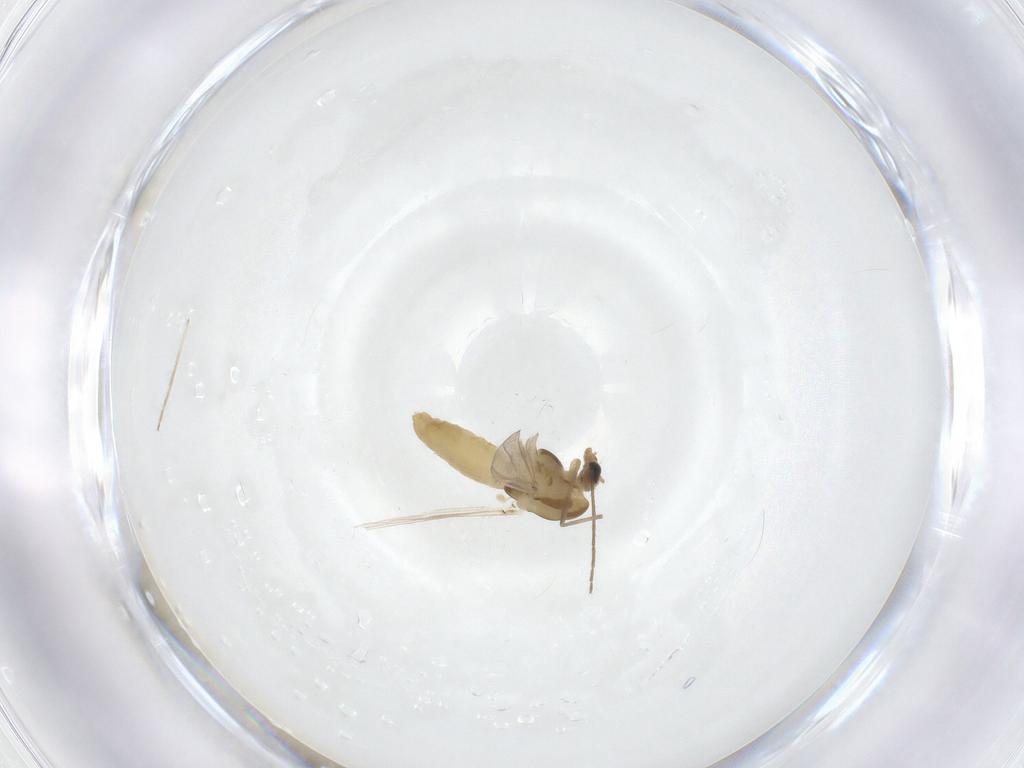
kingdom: Animalia
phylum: Arthropoda
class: Insecta
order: Diptera
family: Chironomidae
